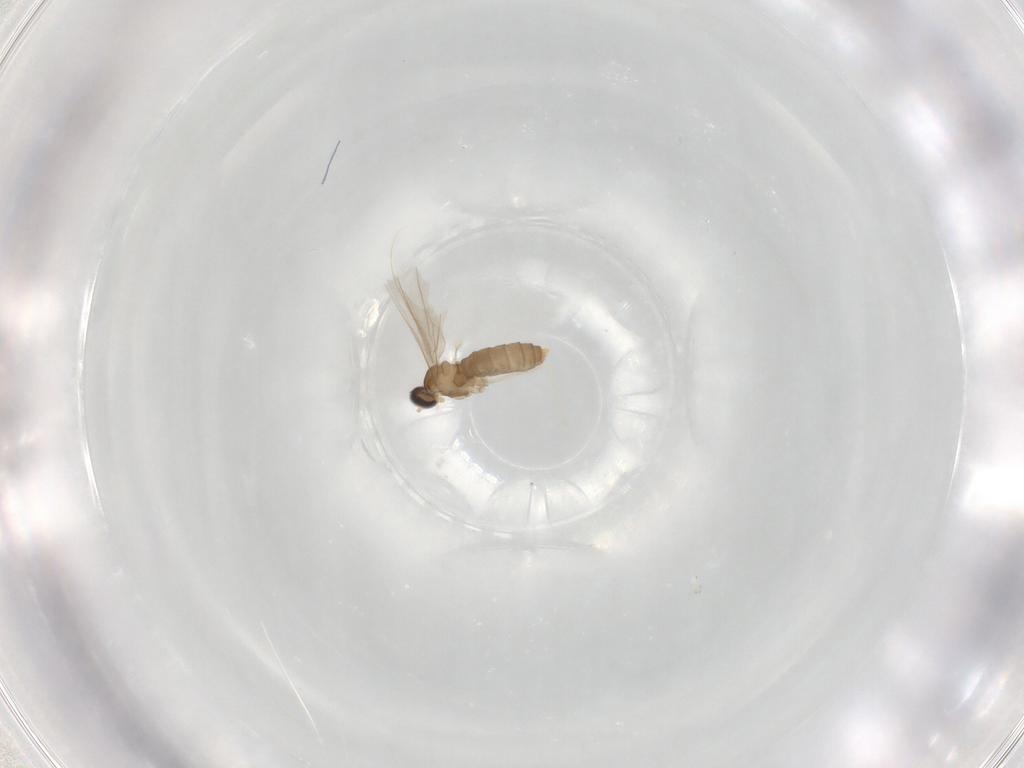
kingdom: Animalia
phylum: Arthropoda
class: Insecta
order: Diptera
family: Cecidomyiidae
